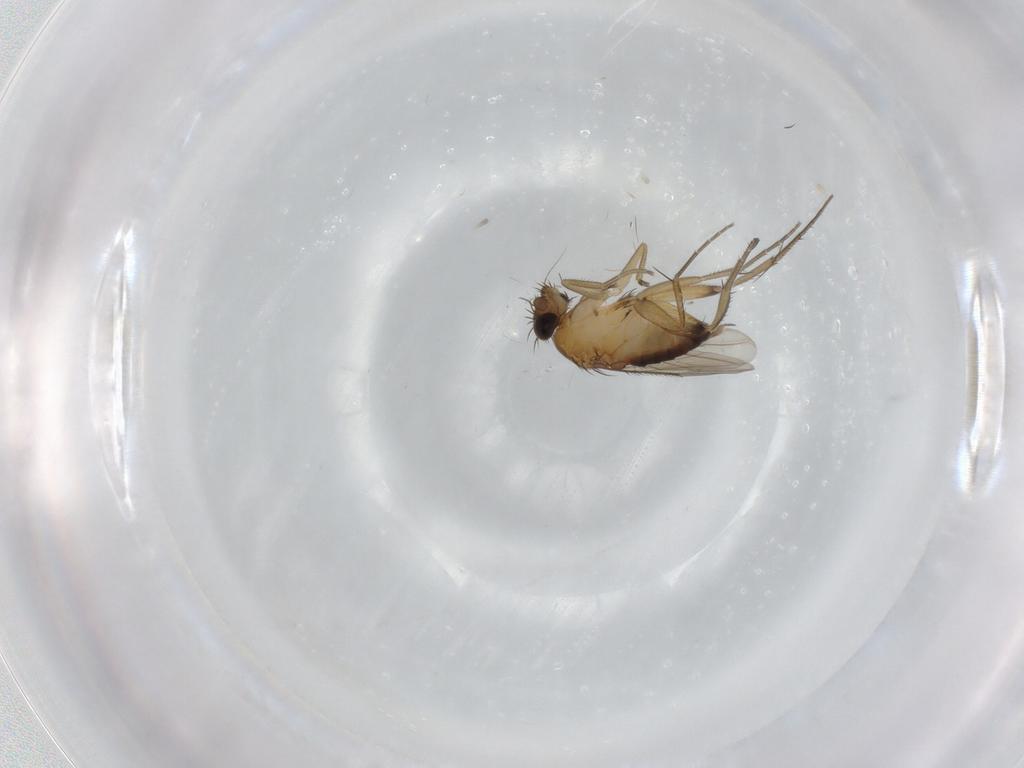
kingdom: Animalia
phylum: Arthropoda
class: Insecta
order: Diptera
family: Phoridae
